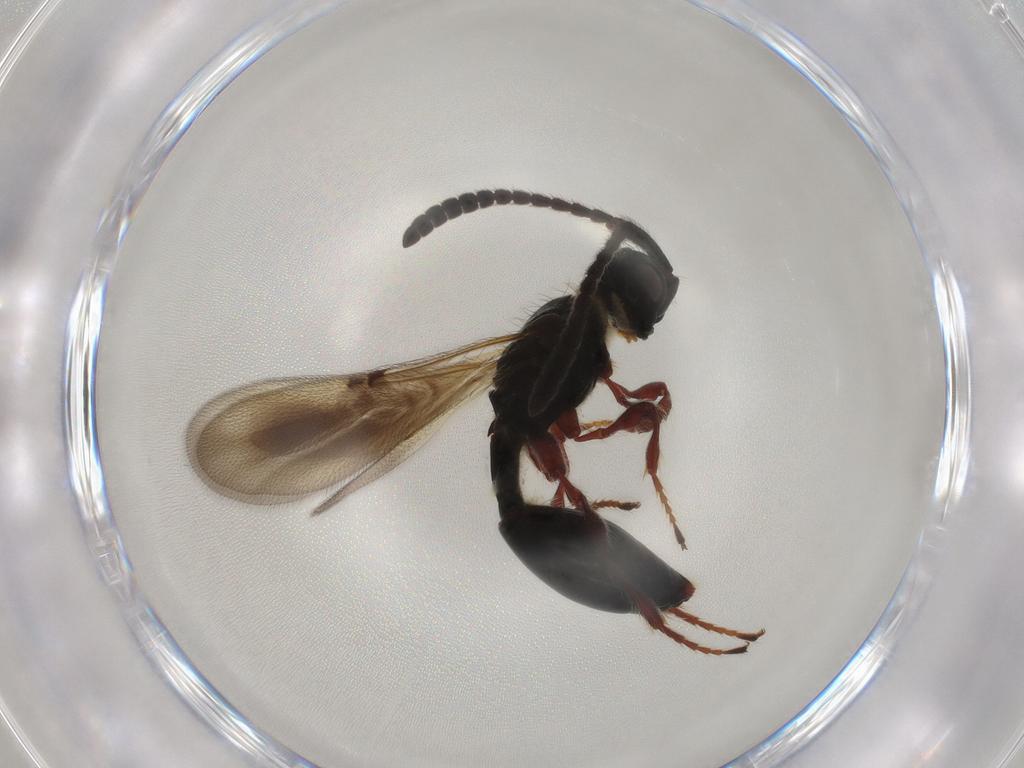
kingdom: Animalia
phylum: Arthropoda
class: Insecta
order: Hymenoptera
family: Diapriidae
